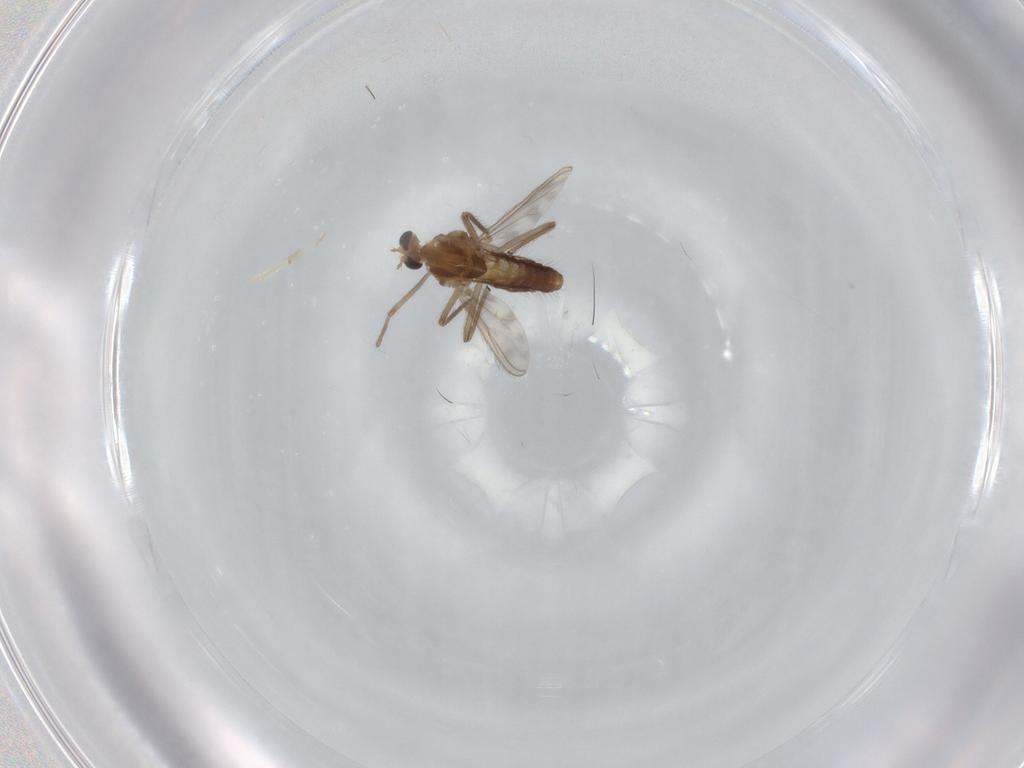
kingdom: Animalia
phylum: Arthropoda
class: Insecta
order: Diptera
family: Chironomidae
